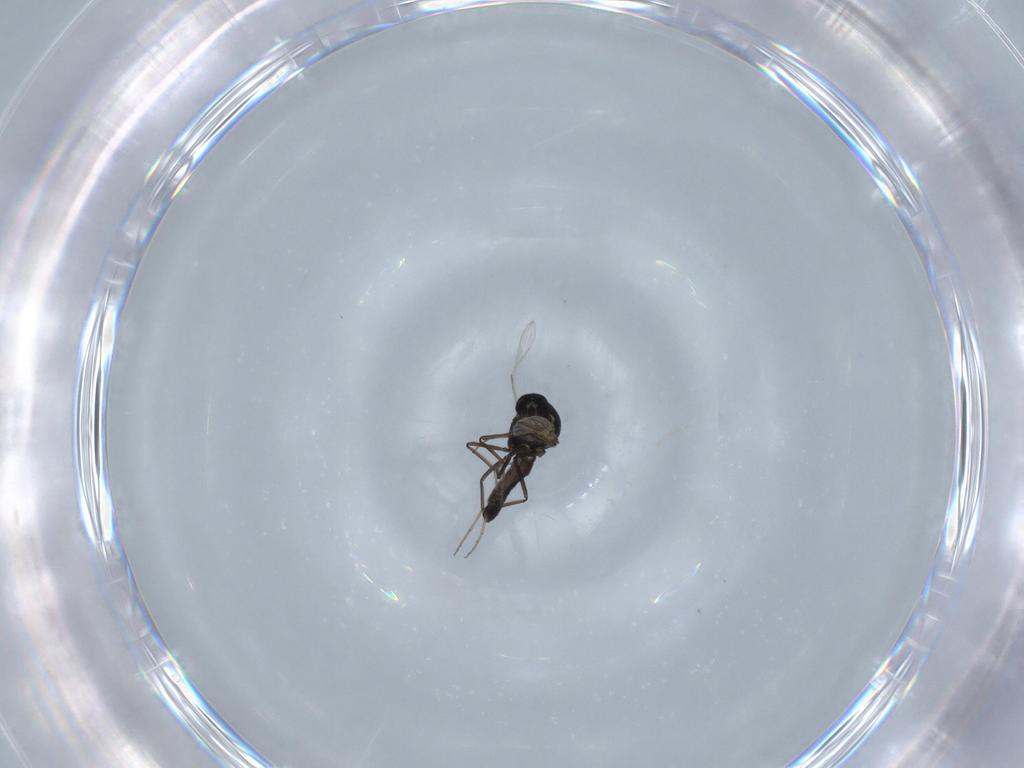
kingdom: Animalia
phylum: Arthropoda
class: Insecta
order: Diptera
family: Ceratopogonidae
